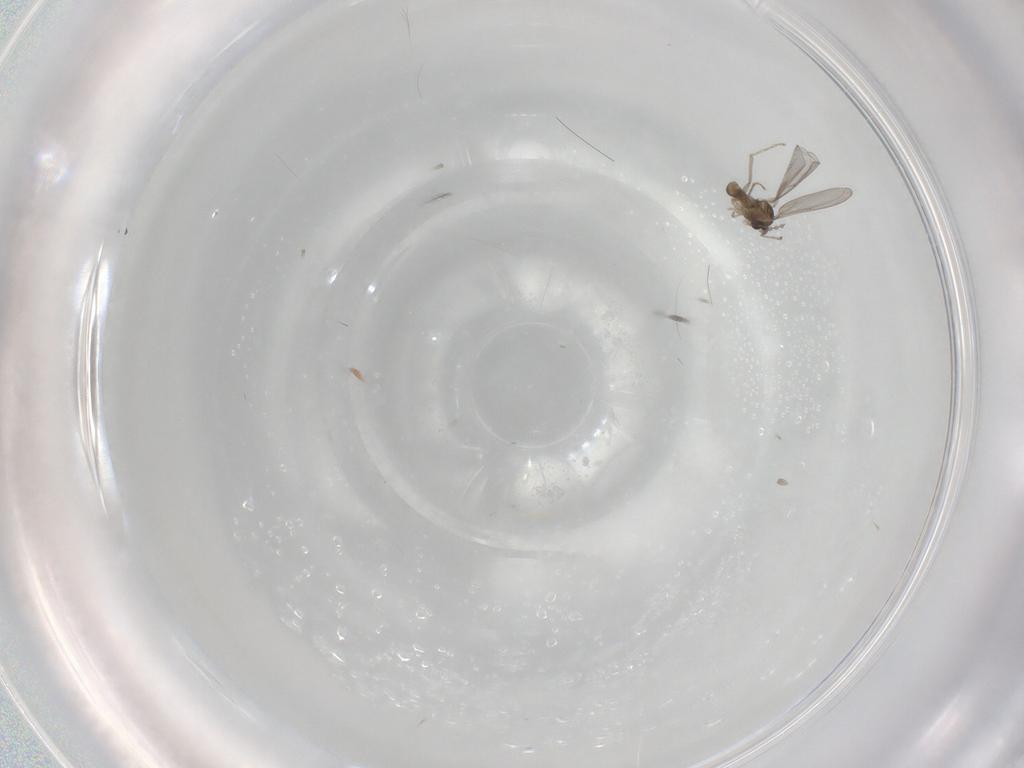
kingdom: Animalia
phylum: Arthropoda
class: Insecta
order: Diptera
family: Cecidomyiidae
